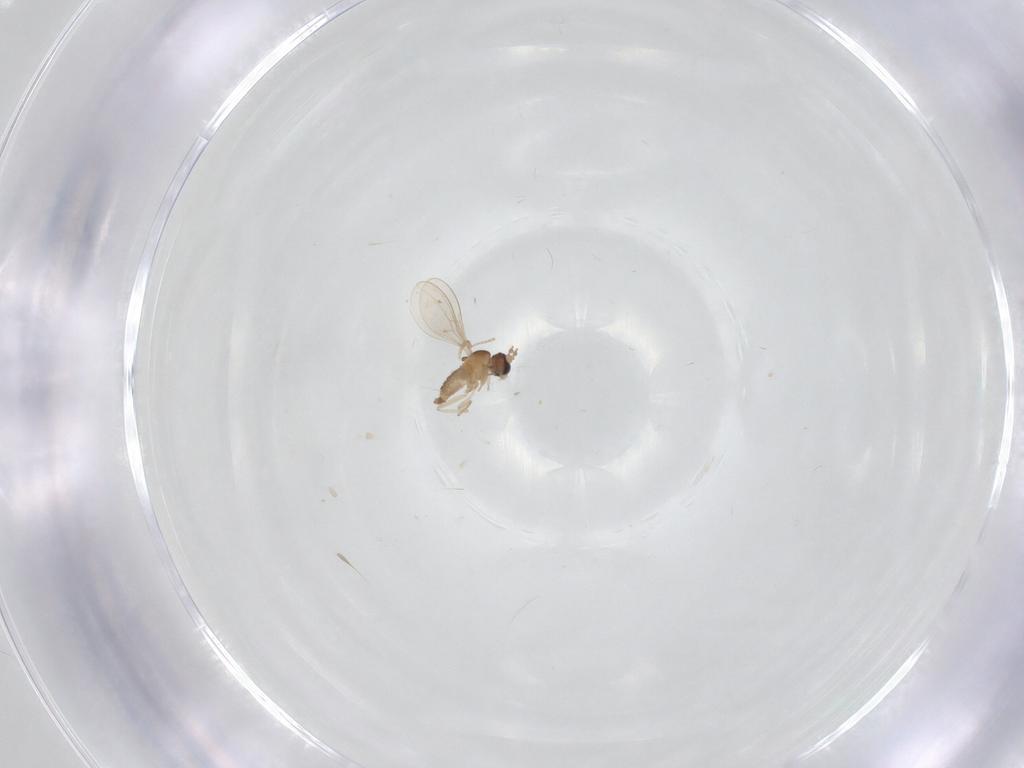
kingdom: Animalia
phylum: Arthropoda
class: Insecta
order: Diptera
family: Cecidomyiidae
